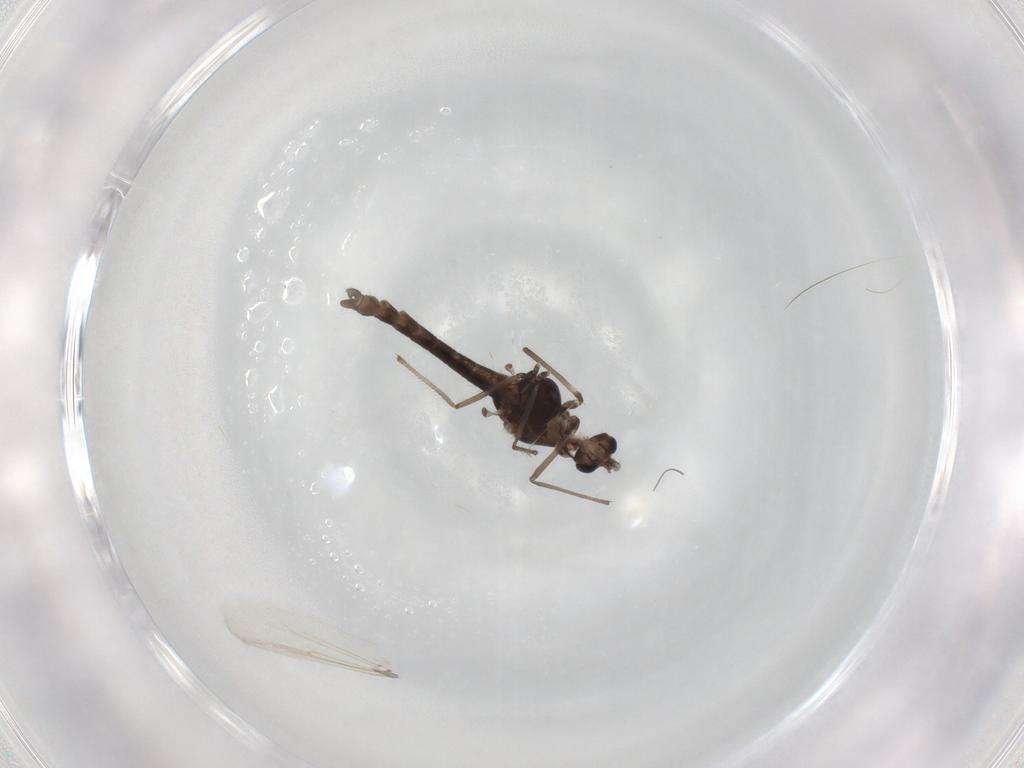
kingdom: Animalia
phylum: Arthropoda
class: Insecta
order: Diptera
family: Chironomidae
